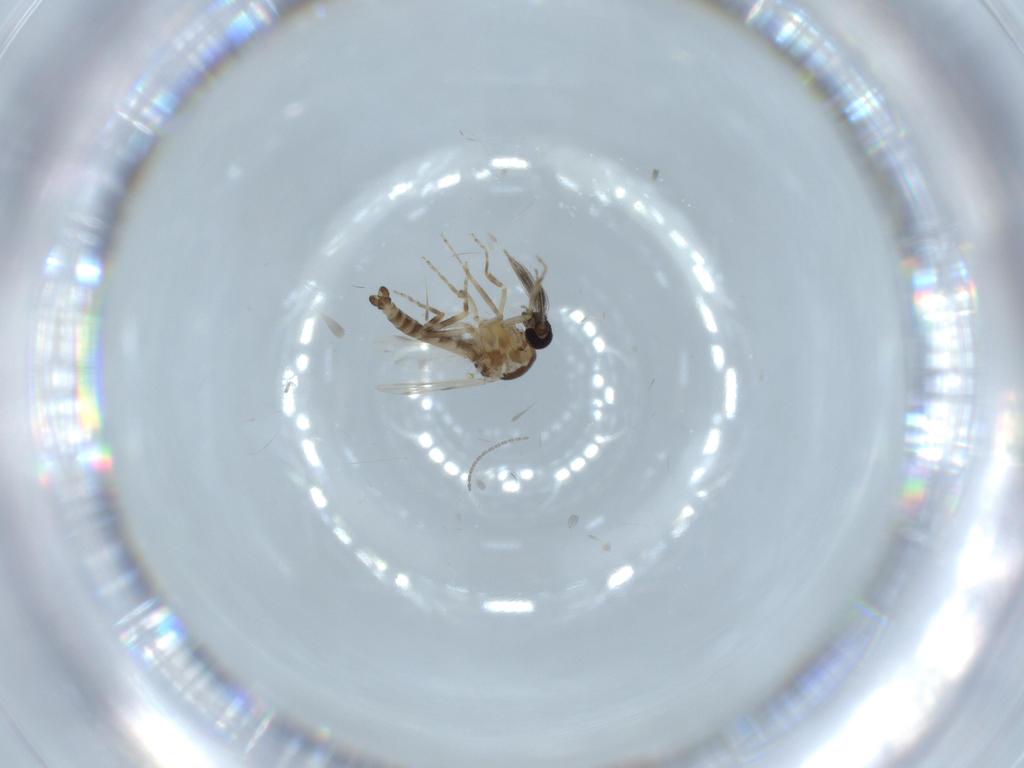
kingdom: Animalia
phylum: Arthropoda
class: Insecta
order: Diptera
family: Ceratopogonidae
